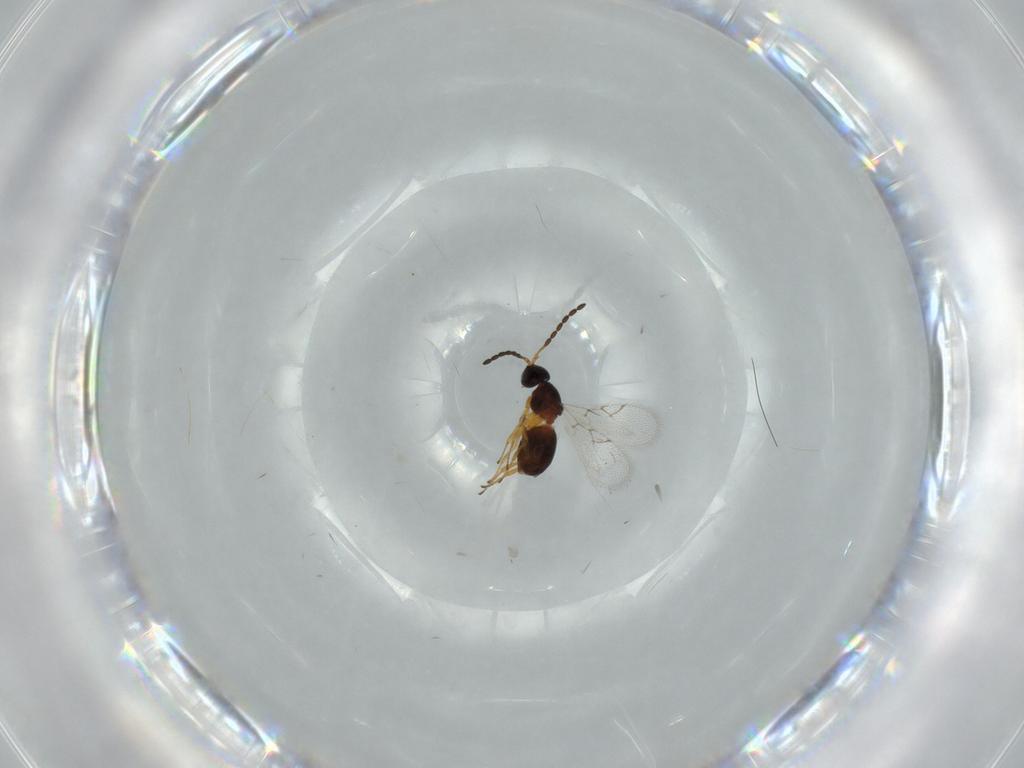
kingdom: Animalia
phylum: Arthropoda
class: Insecta
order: Hymenoptera
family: Figitidae
